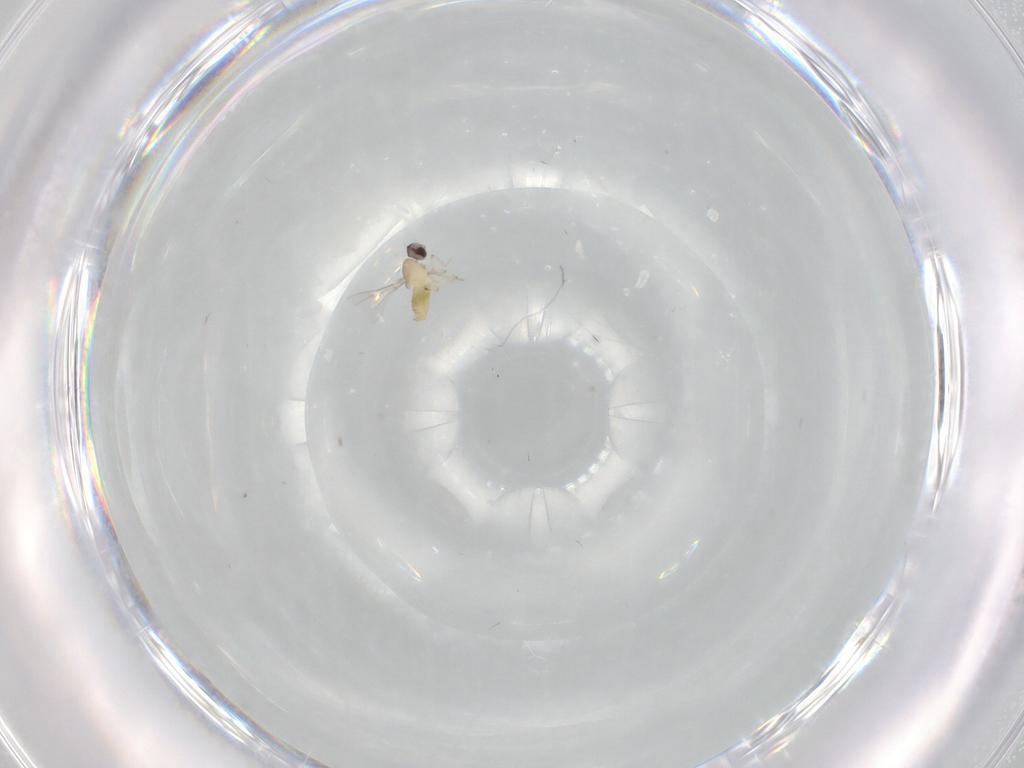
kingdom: Animalia
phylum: Arthropoda
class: Insecta
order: Diptera
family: Cecidomyiidae
